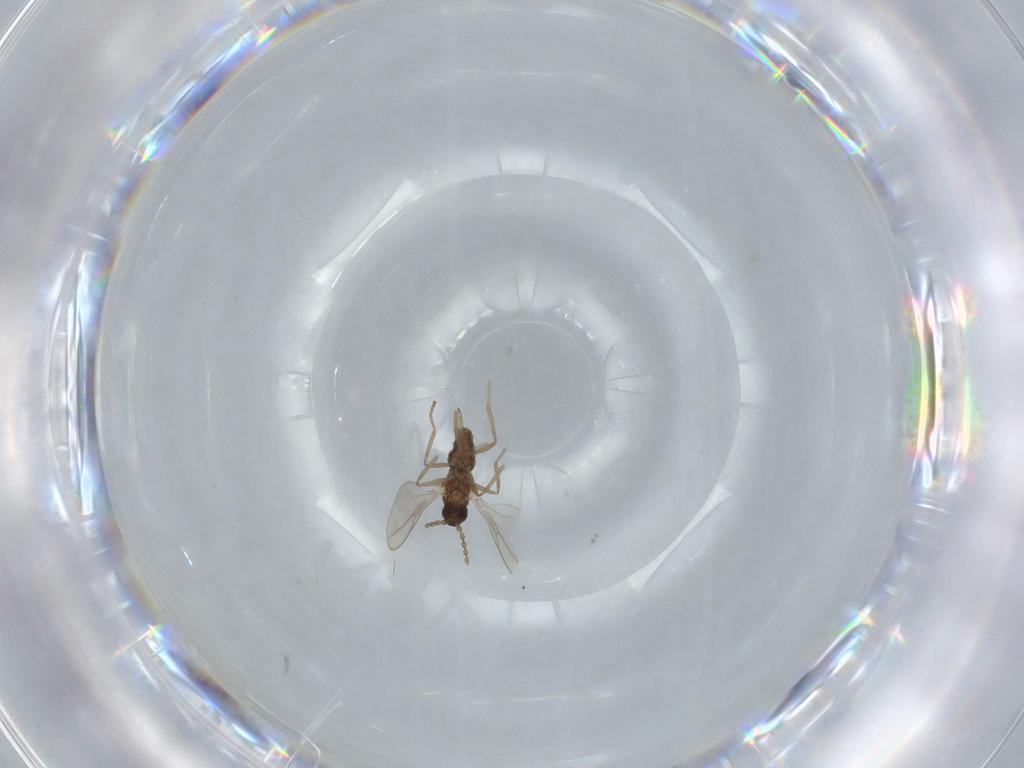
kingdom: Animalia
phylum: Arthropoda
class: Insecta
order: Diptera
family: Cecidomyiidae
